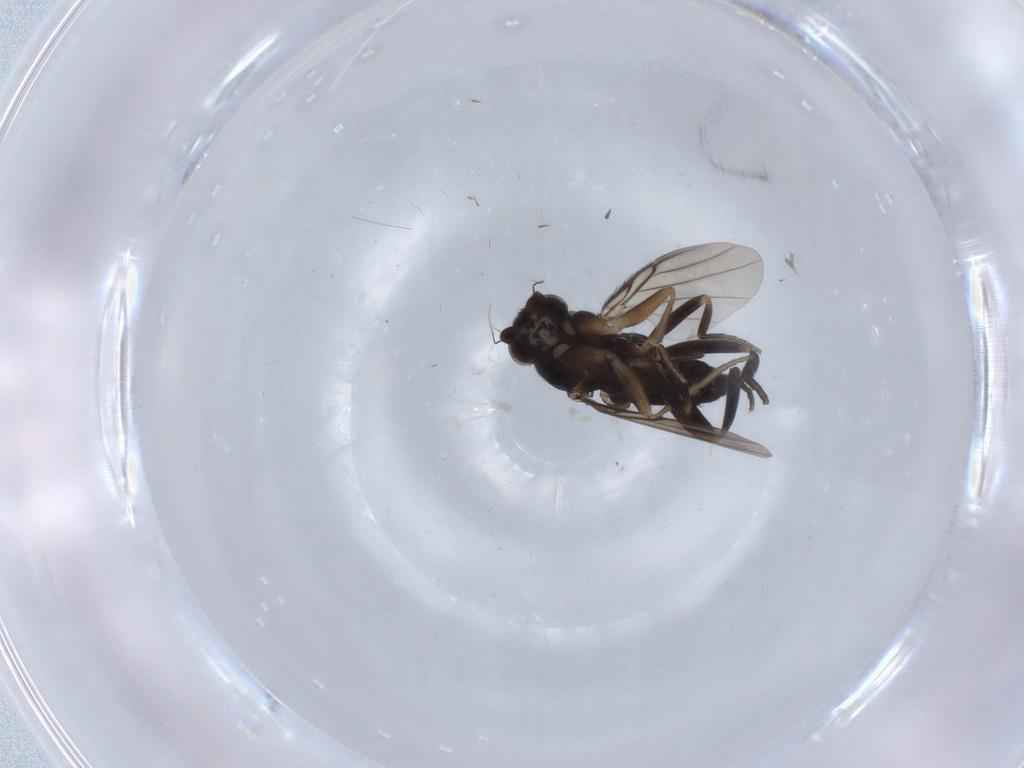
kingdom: Animalia
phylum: Arthropoda
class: Insecta
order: Diptera
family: Phoridae
